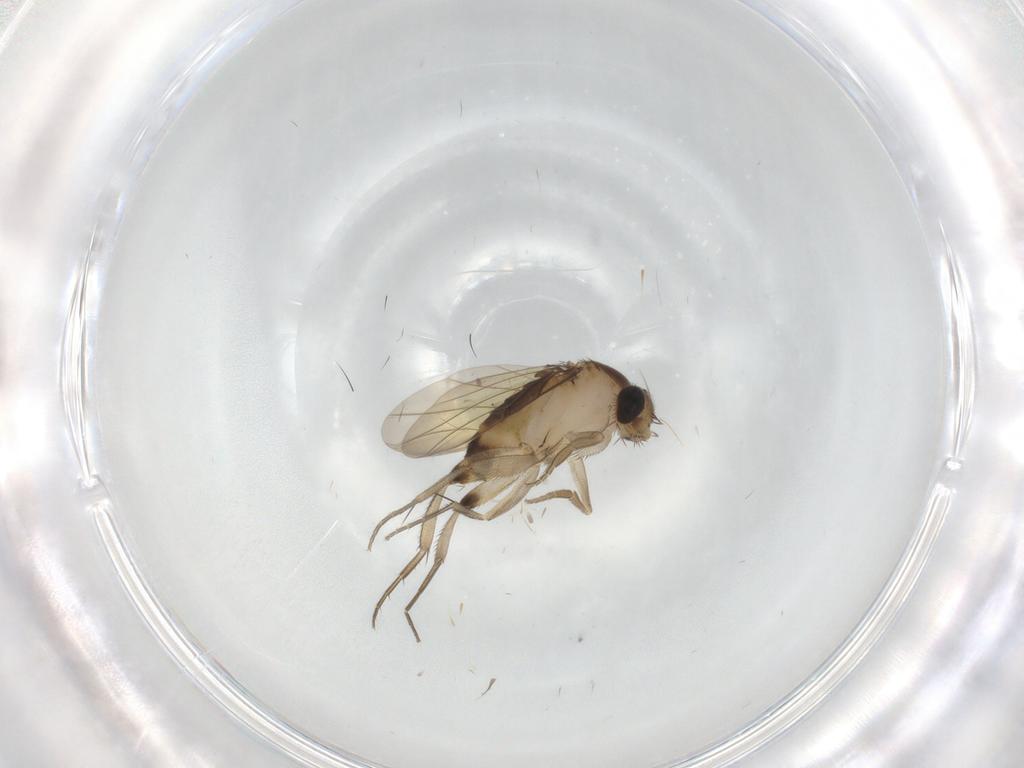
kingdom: Animalia
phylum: Arthropoda
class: Insecta
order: Diptera
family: Phoridae
